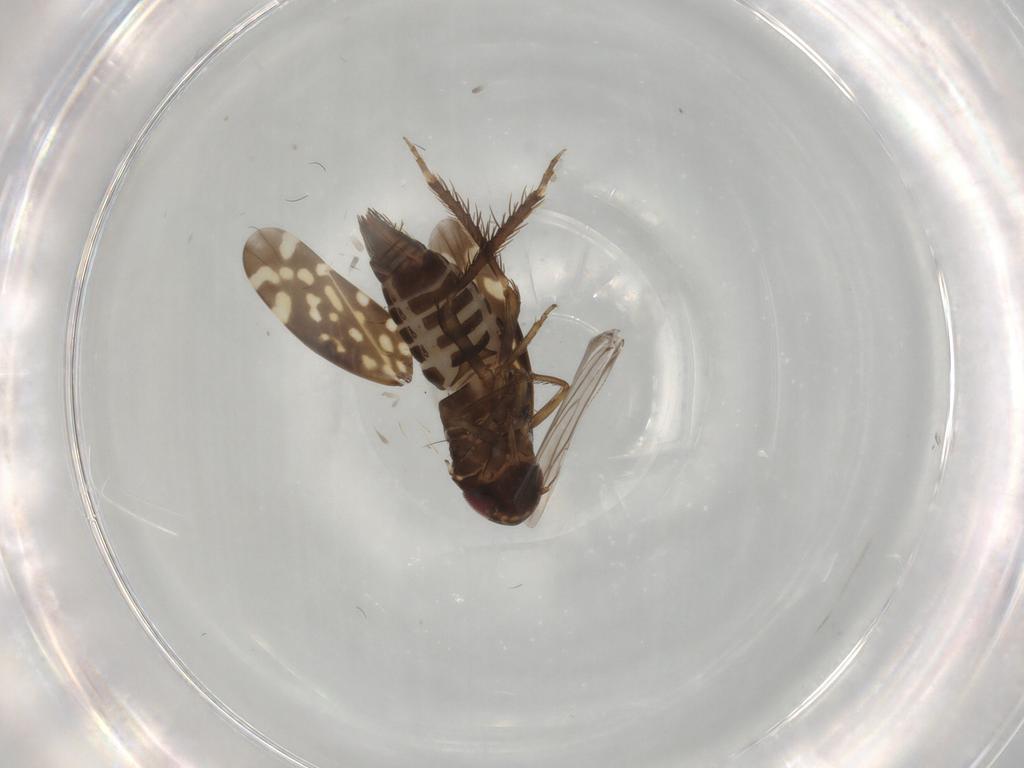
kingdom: Animalia
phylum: Arthropoda
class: Insecta
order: Hemiptera
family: Cicadellidae
